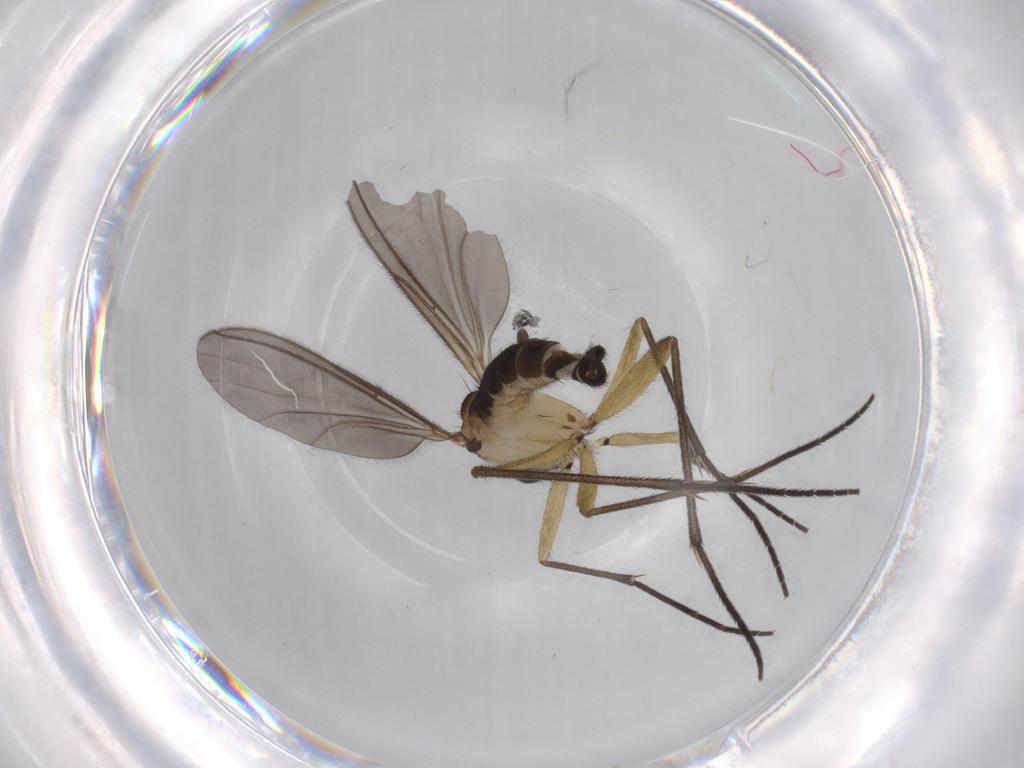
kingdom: Animalia
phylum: Arthropoda
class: Insecta
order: Diptera
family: Sciaridae
